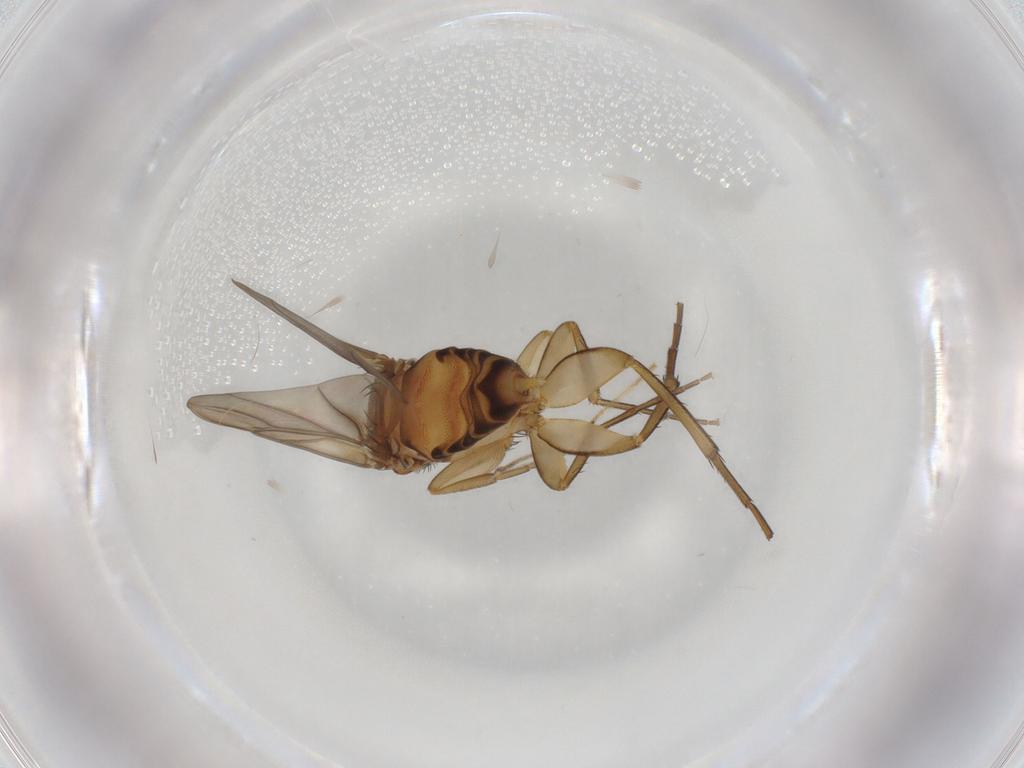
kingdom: Animalia
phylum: Arthropoda
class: Insecta
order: Diptera
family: Cecidomyiidae
